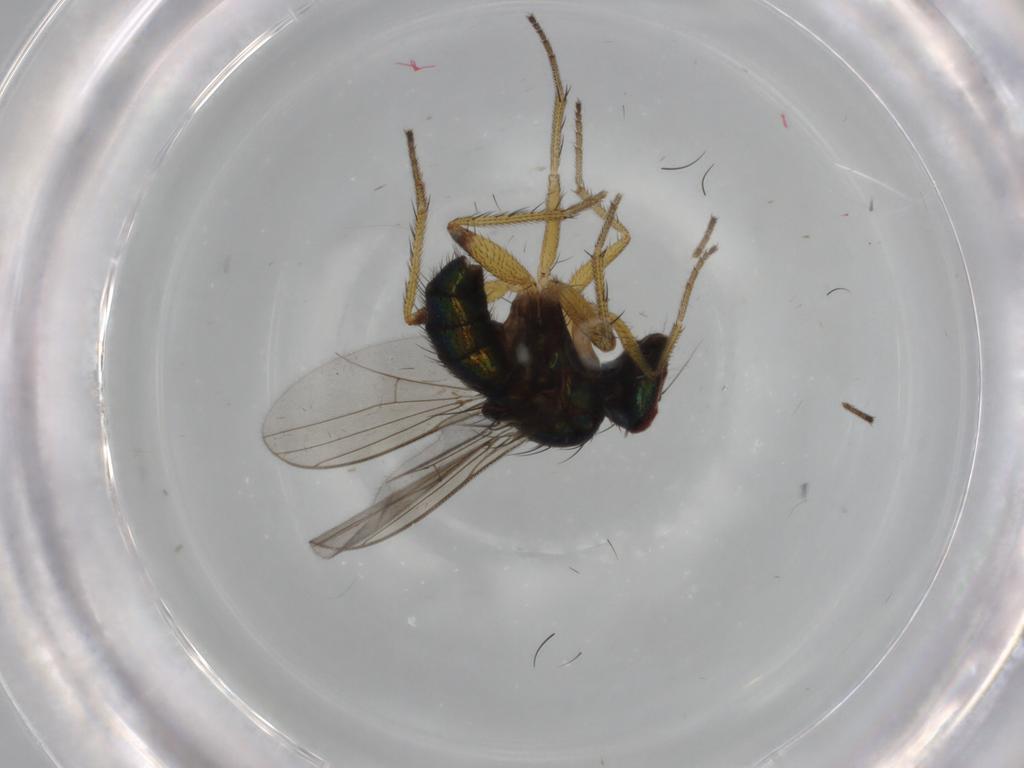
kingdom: Animalia
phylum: Arthropoda
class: Insecta
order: Diptera
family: Dolichopodidae
